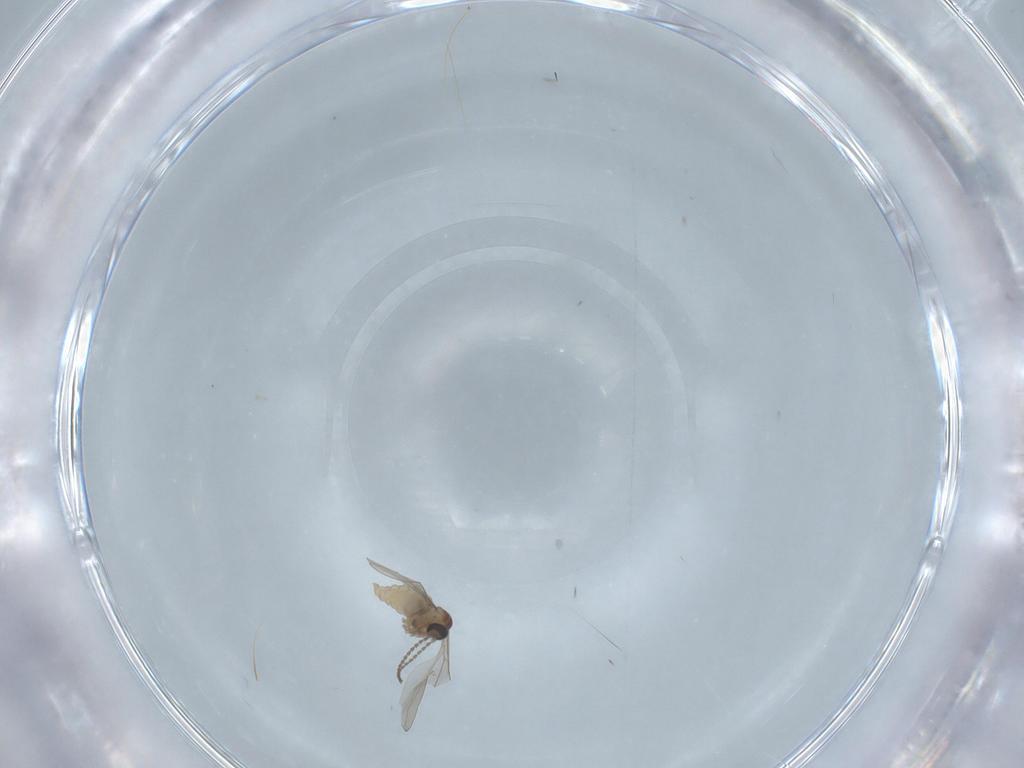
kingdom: Animalia
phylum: Arthropoda
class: Insecta
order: Diptera
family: Cecidomyiidae
